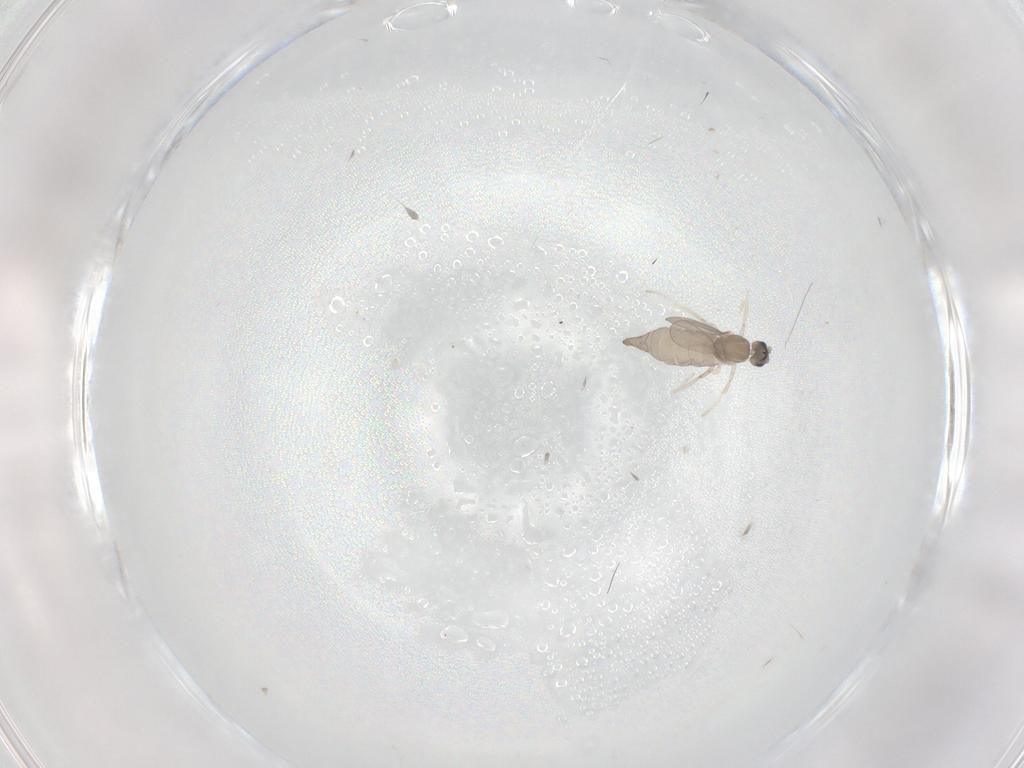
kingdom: Animalia
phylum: Arthropoda
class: Insecta
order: Diptera
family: Cecidomyiidae
